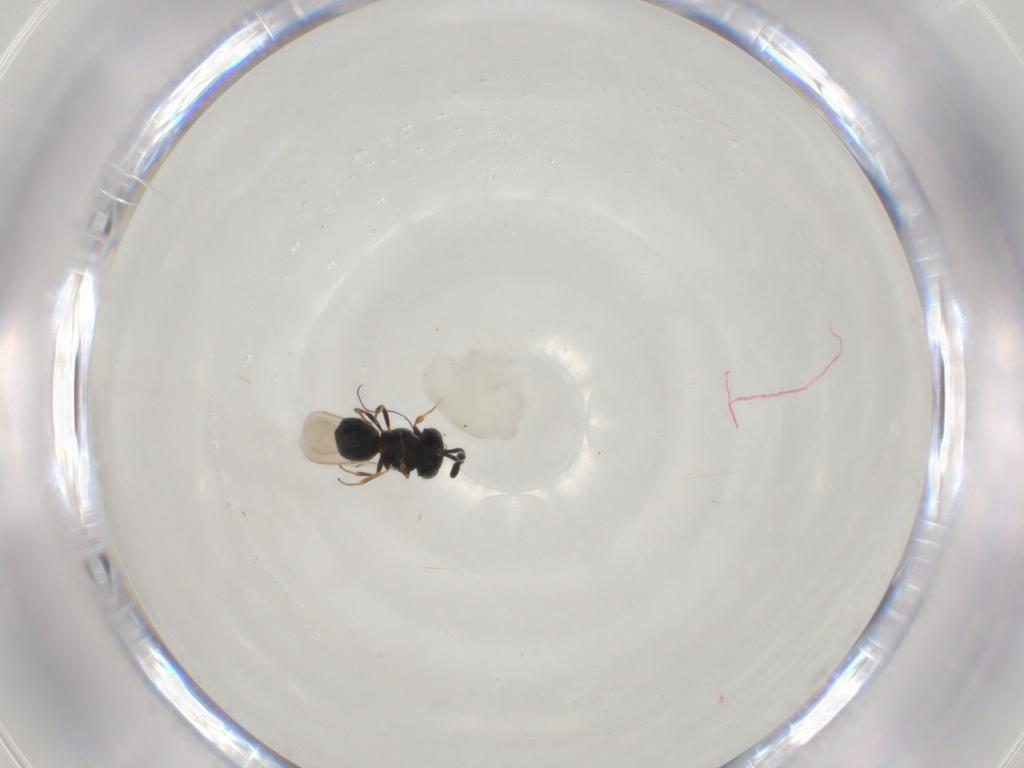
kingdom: Animalia
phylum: Arthropoda
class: Insecta
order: Hymenoptera
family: Scelionidae
